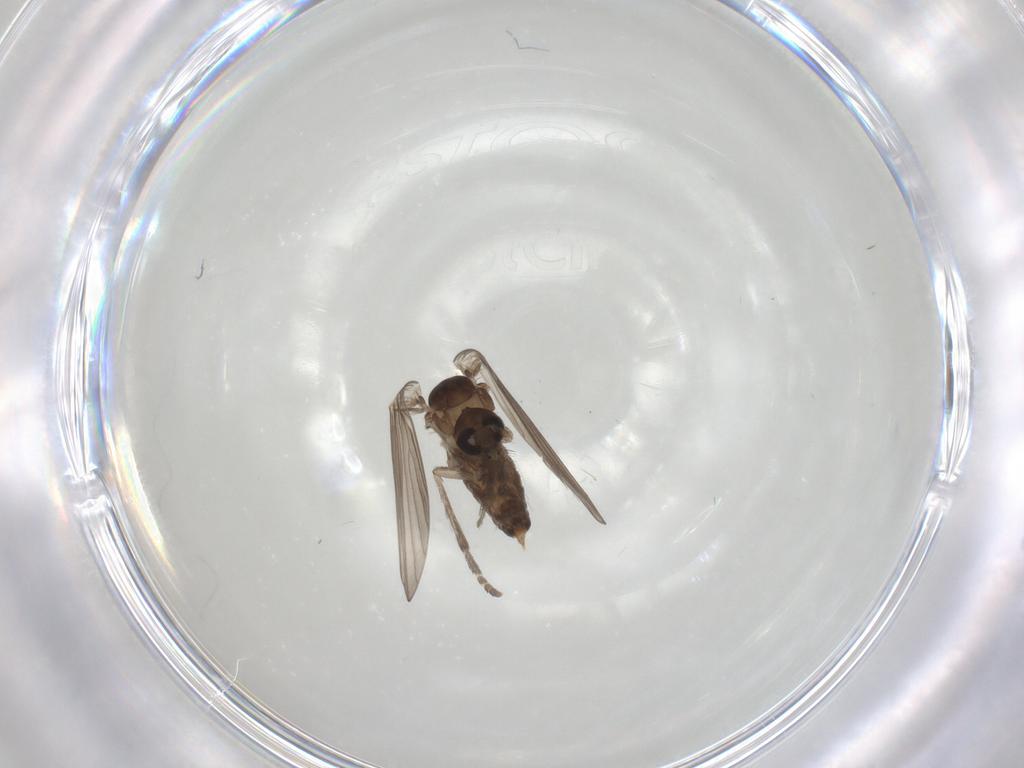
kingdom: Animalia
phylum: Arthropoda
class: Insecta
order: Diptera
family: Psychodidae
